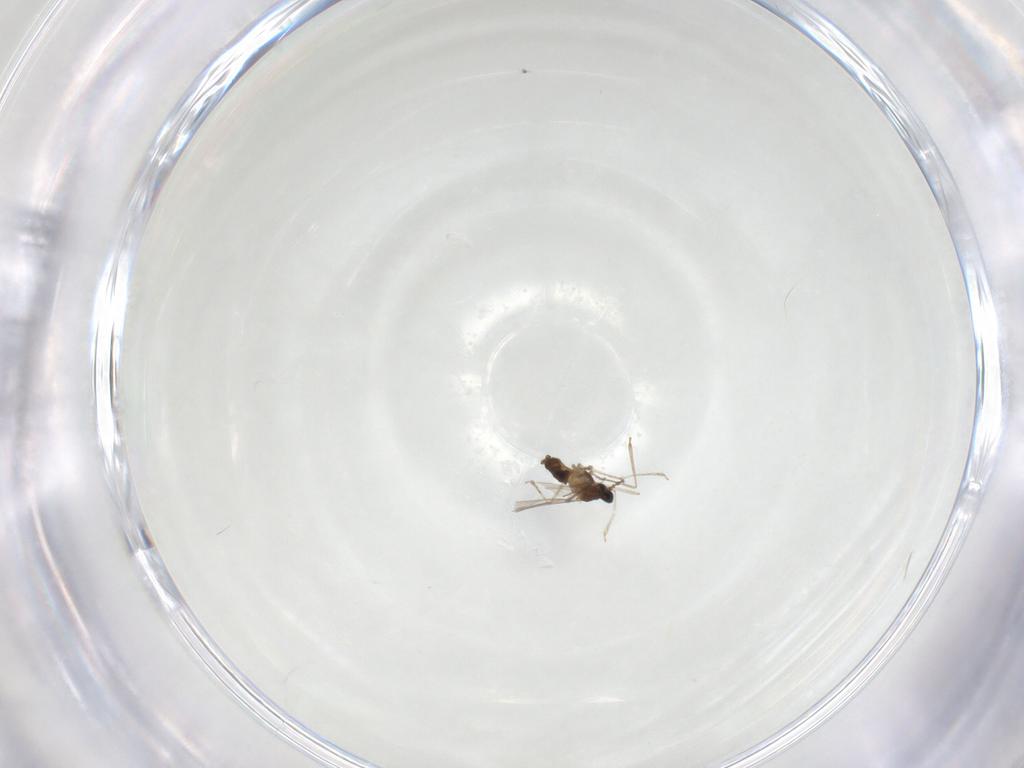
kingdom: Animalia
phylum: Arthropoda
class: Insecta
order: Diptera
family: Cecidomyiidae
